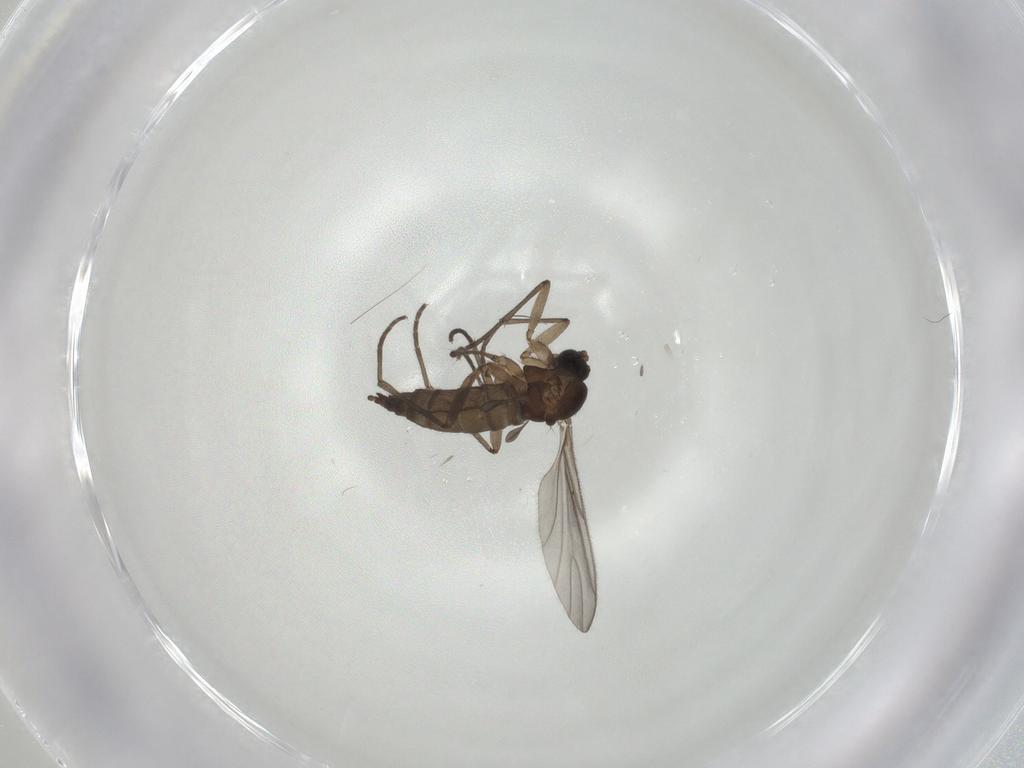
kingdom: Animalia
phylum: Arthropoda
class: Insecta
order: Diptera
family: Sciaridae
